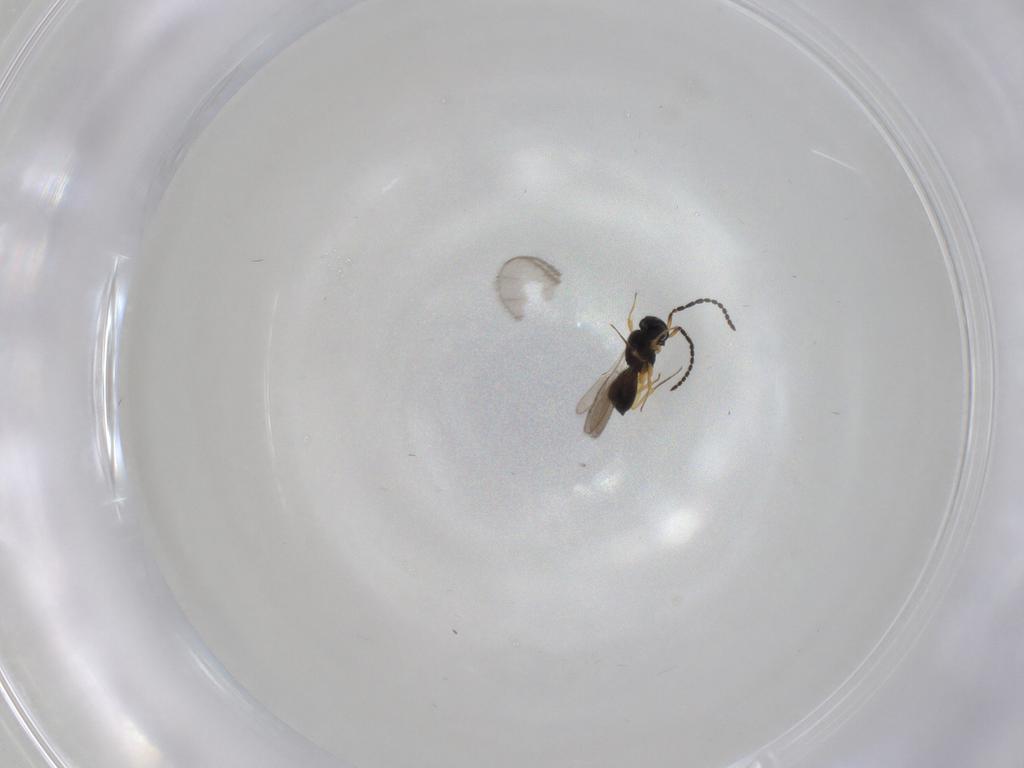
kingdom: Animalia
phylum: Arthropoda
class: Insecta
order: Hymenoptera
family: Scelionidae
